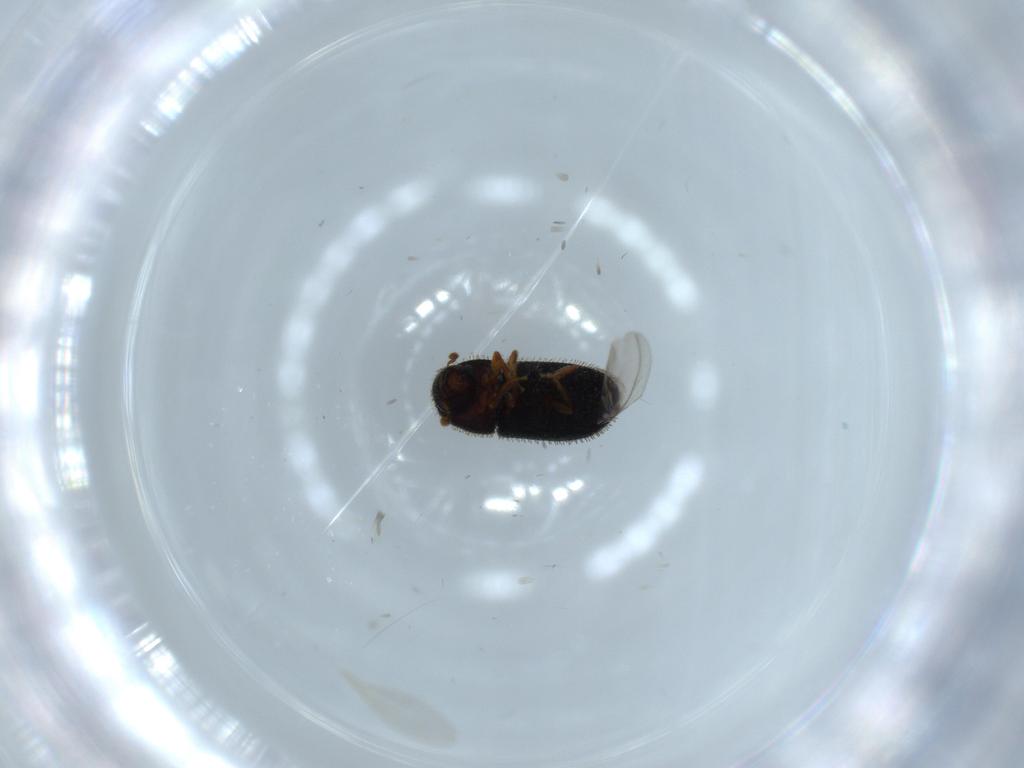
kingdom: Animalia
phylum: Arthropoda
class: Insecta
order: Coleoptera
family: Curculionidae
